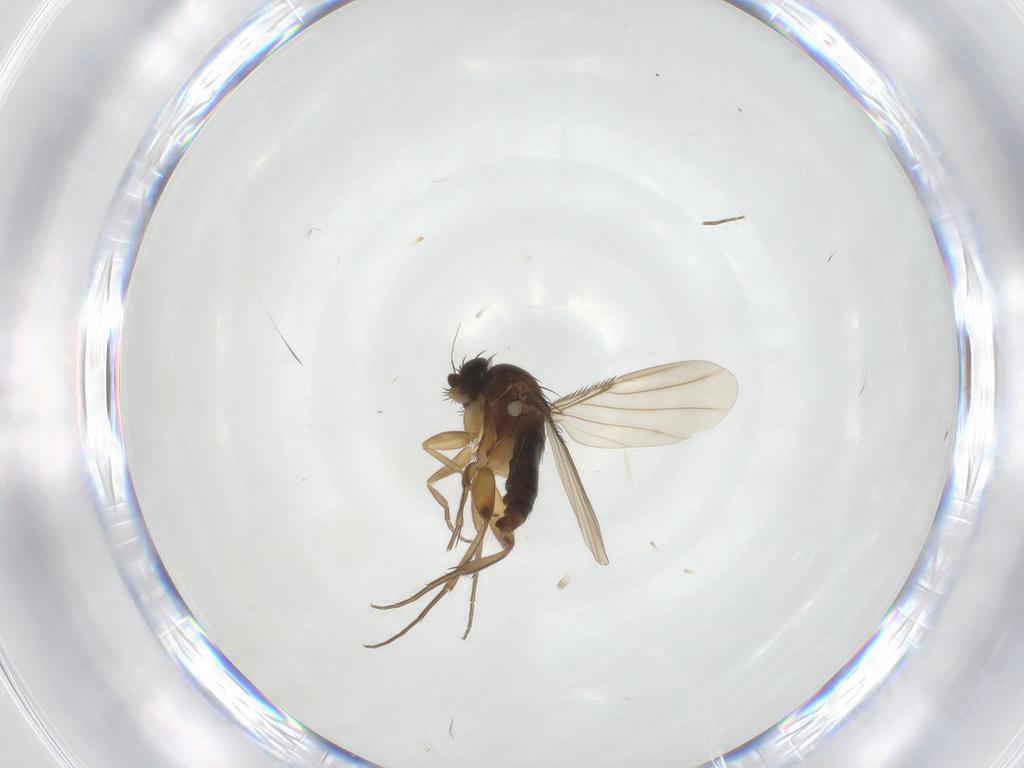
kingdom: Animalia
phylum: Arthropoda
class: Insecta
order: Diptera
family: Phoridae
